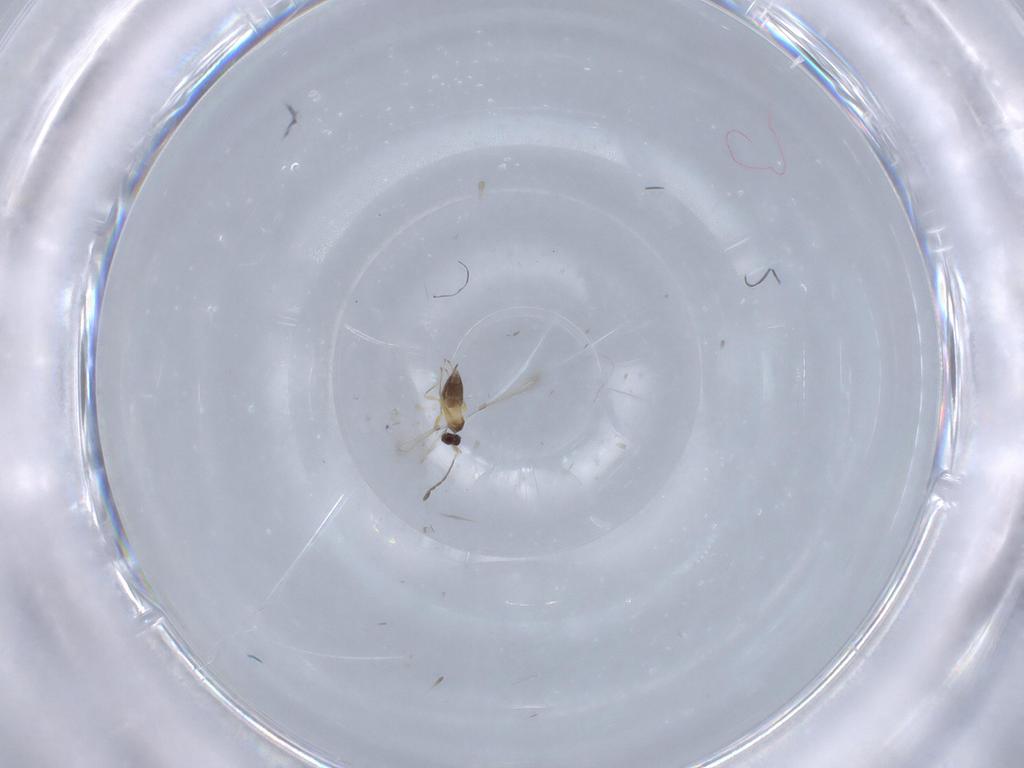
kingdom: Animalia
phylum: Arthropoda
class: Insecta
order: Hymenoptera
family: Mymaridae
